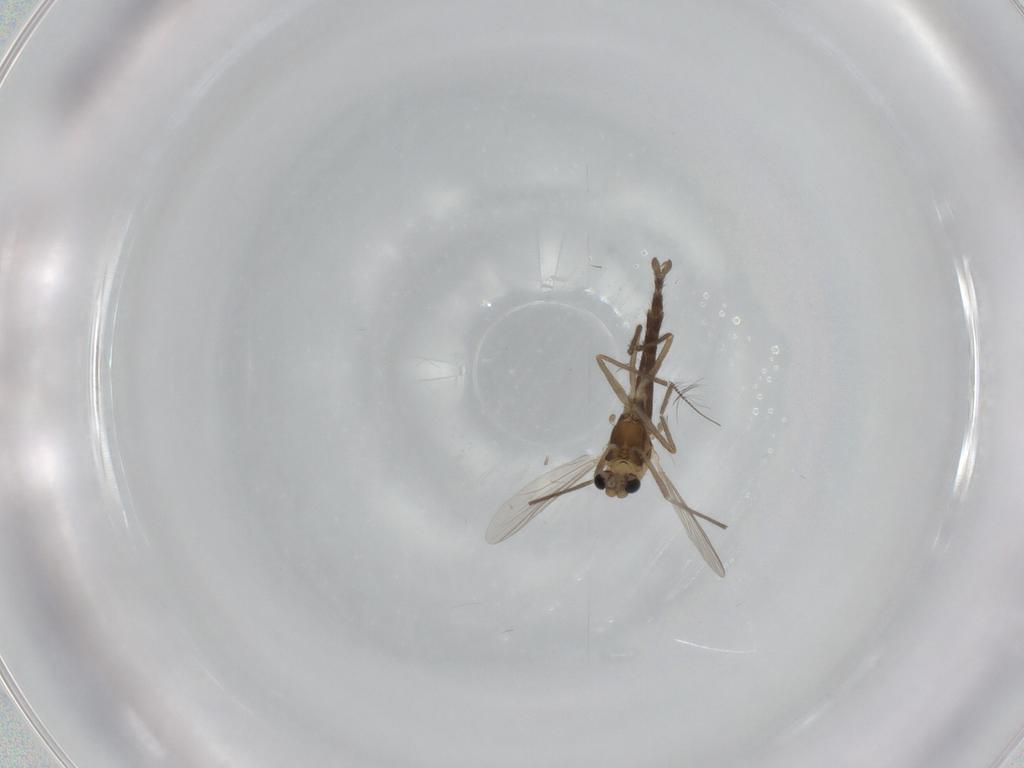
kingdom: Animalia
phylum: Arthropoda
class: Insecta
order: Diptera
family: Chironomidae
